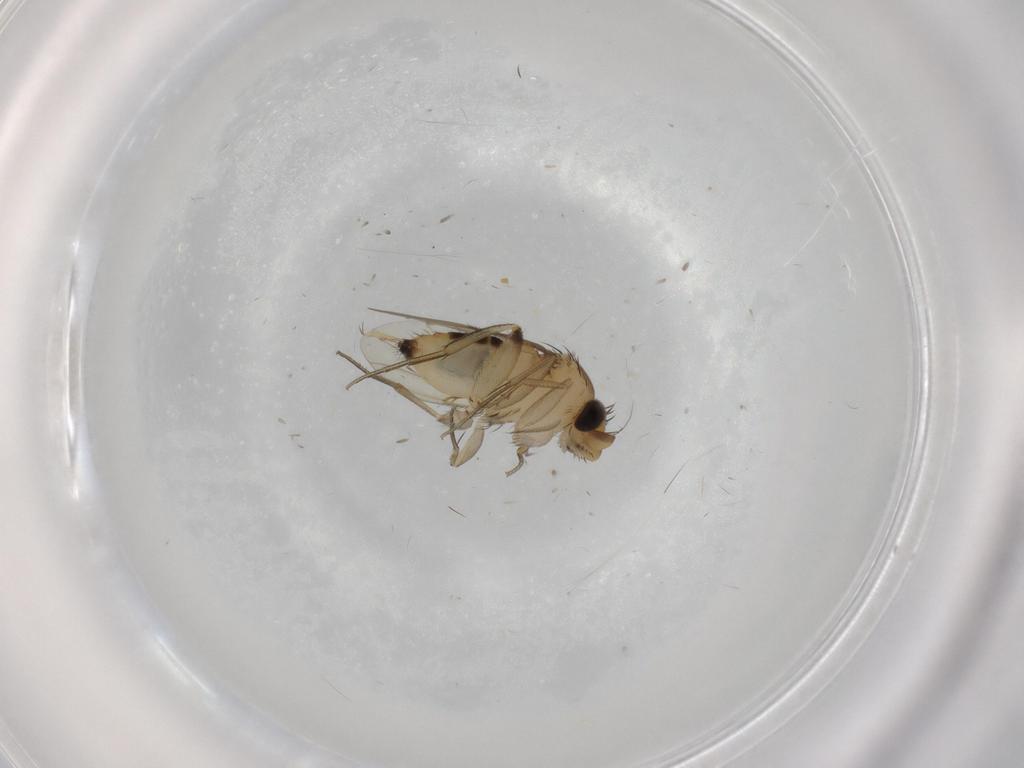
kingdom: Animalia
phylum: Arthropoda
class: Insecta
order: Diptera
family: Phoridae
